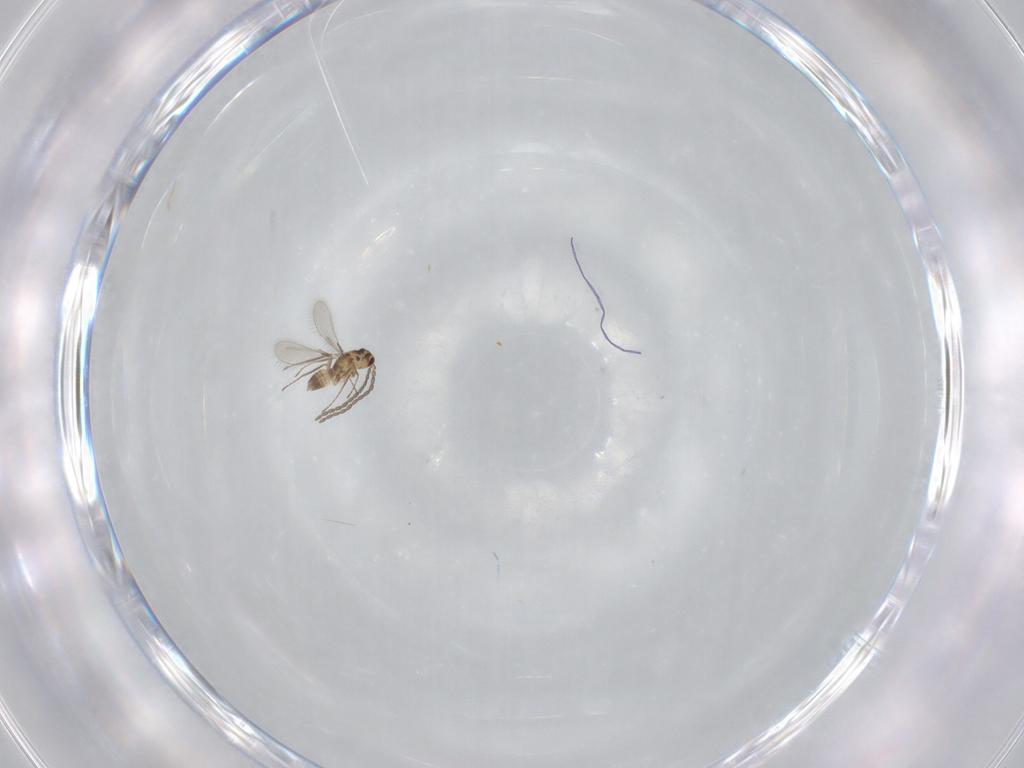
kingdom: Animalia
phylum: Arthropoda
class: Insecta
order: Hymenoptera
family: Mymaridae
